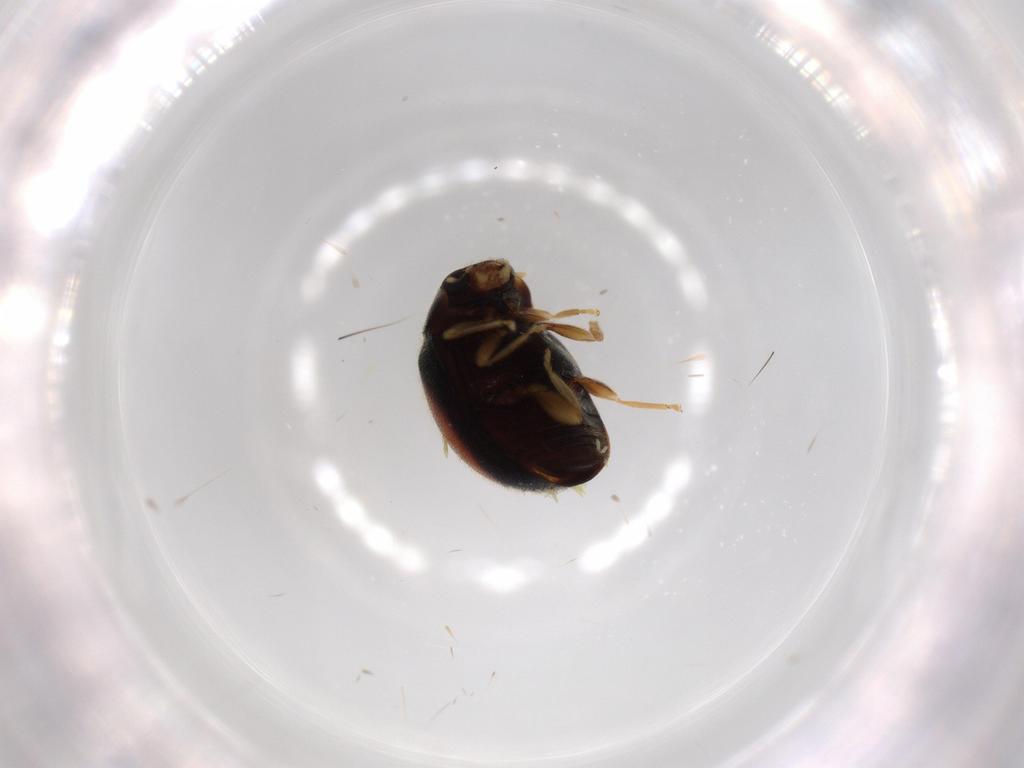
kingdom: Animalia
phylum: Arthropoda
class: Insecta
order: Coleoptera
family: Coccinellidae
